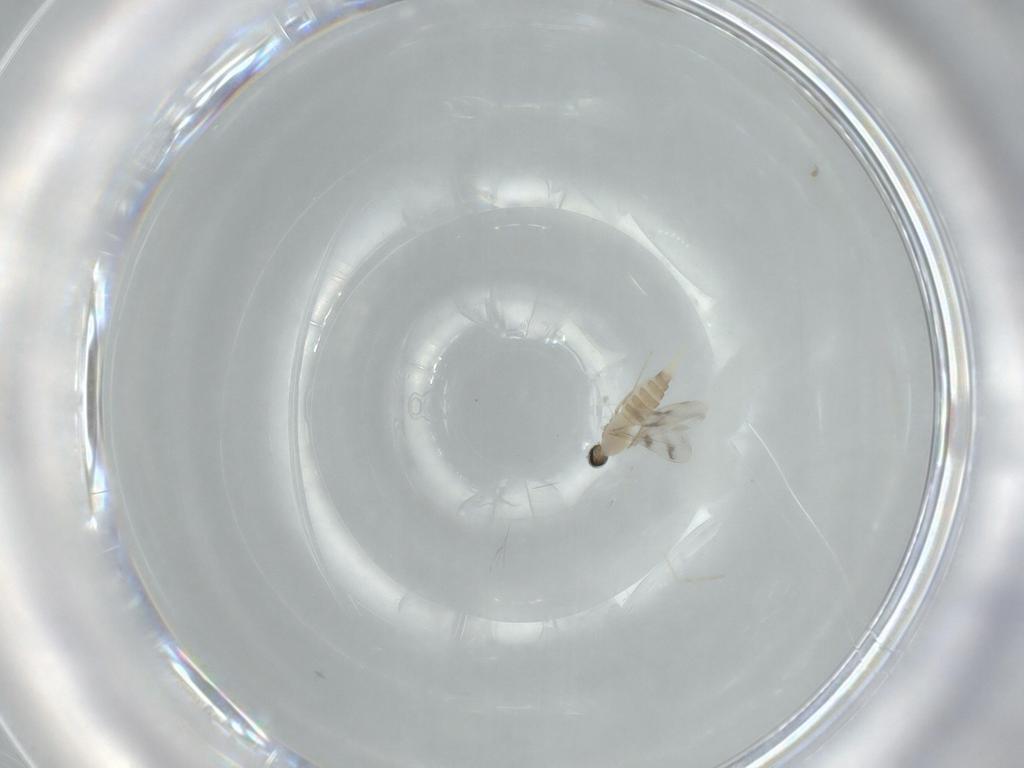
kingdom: Animalia
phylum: Arthropoda
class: Insecta
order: Diptera
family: Cecidomyiidae
